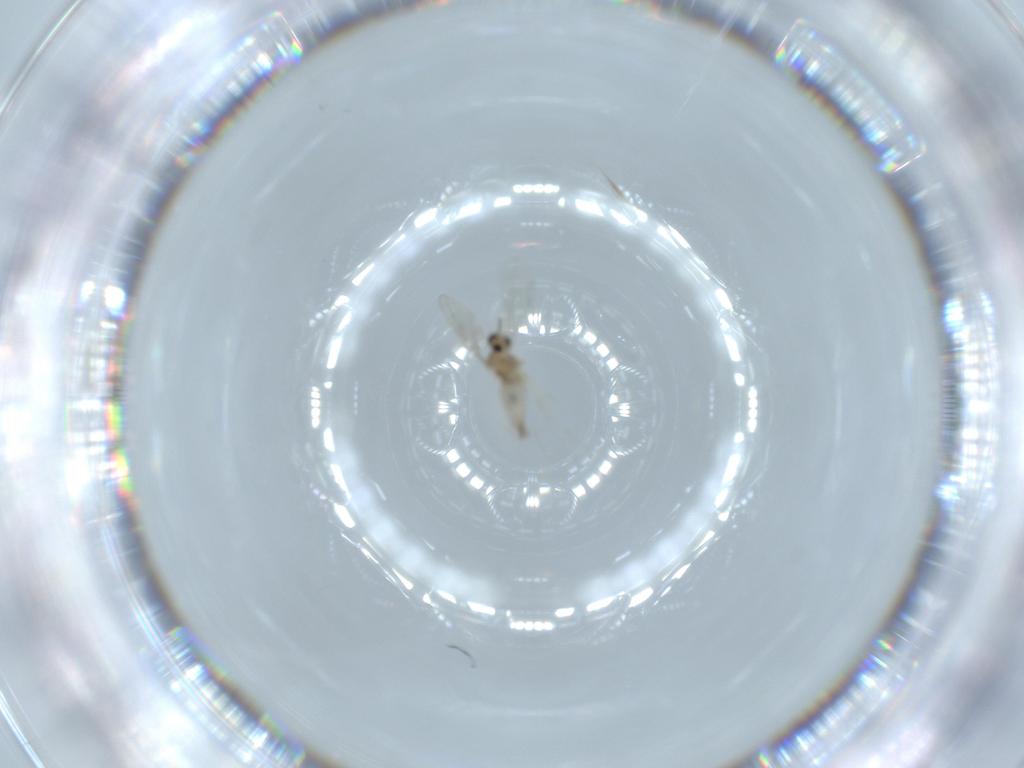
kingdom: Animalia
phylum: Arthropoda
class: Insecta
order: Diptera
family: Cecidomyiidae
